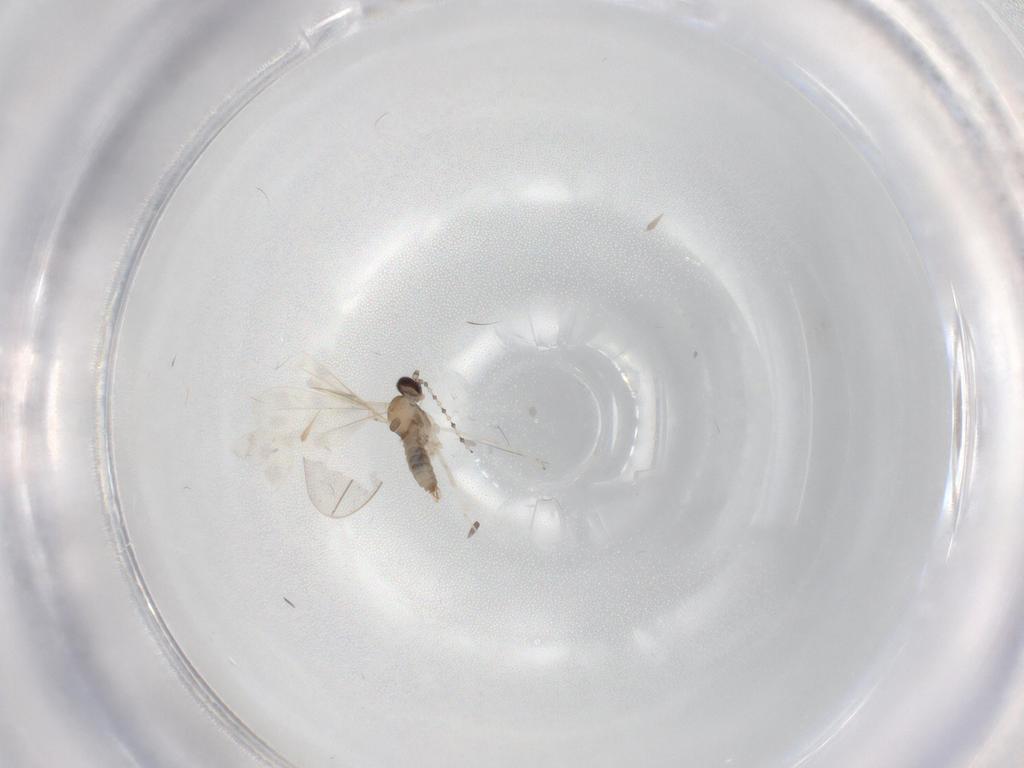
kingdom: Animalia
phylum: Arthropoda
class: Insecta
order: Diptera
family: Cecidomyiidae
